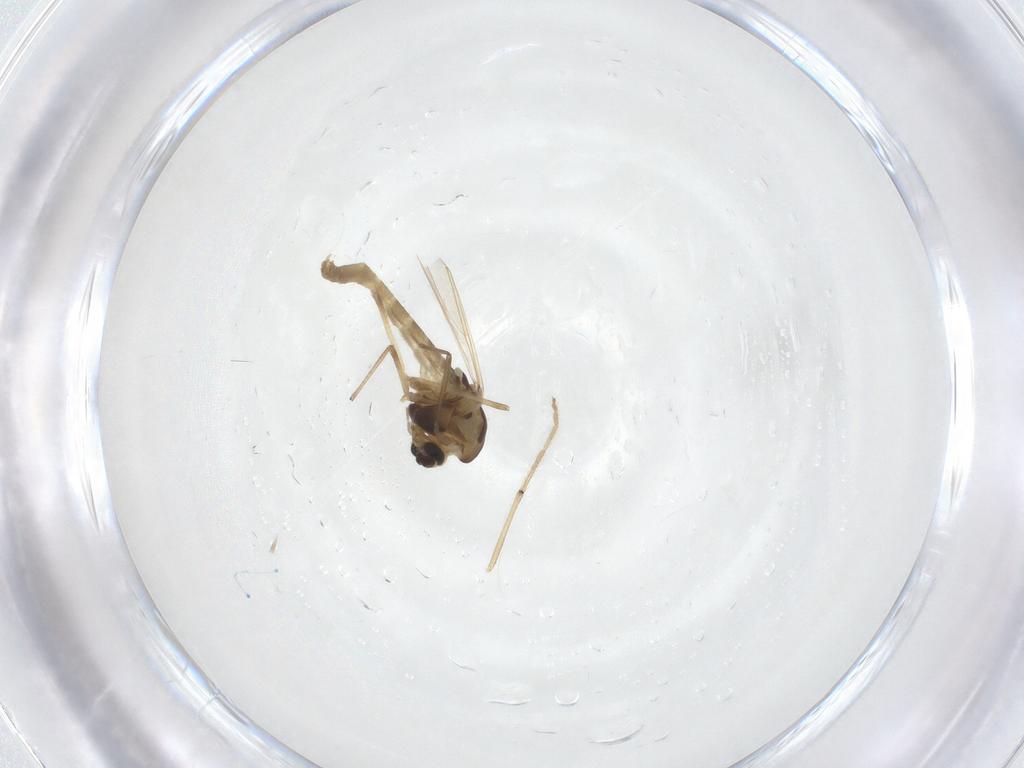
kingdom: Animalia
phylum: Arthropoda
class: Insecta
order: Diptera
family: Chironomidae
